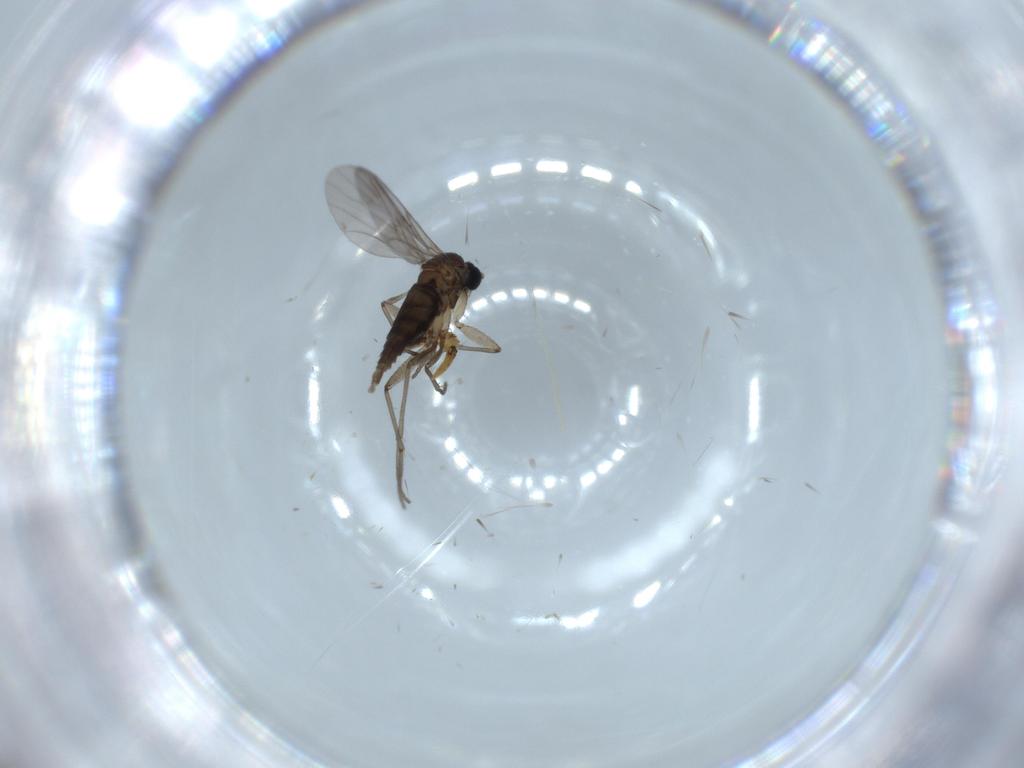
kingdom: Animalia
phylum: Arthropoda
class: Insecta
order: Diptera
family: Sciaridae
